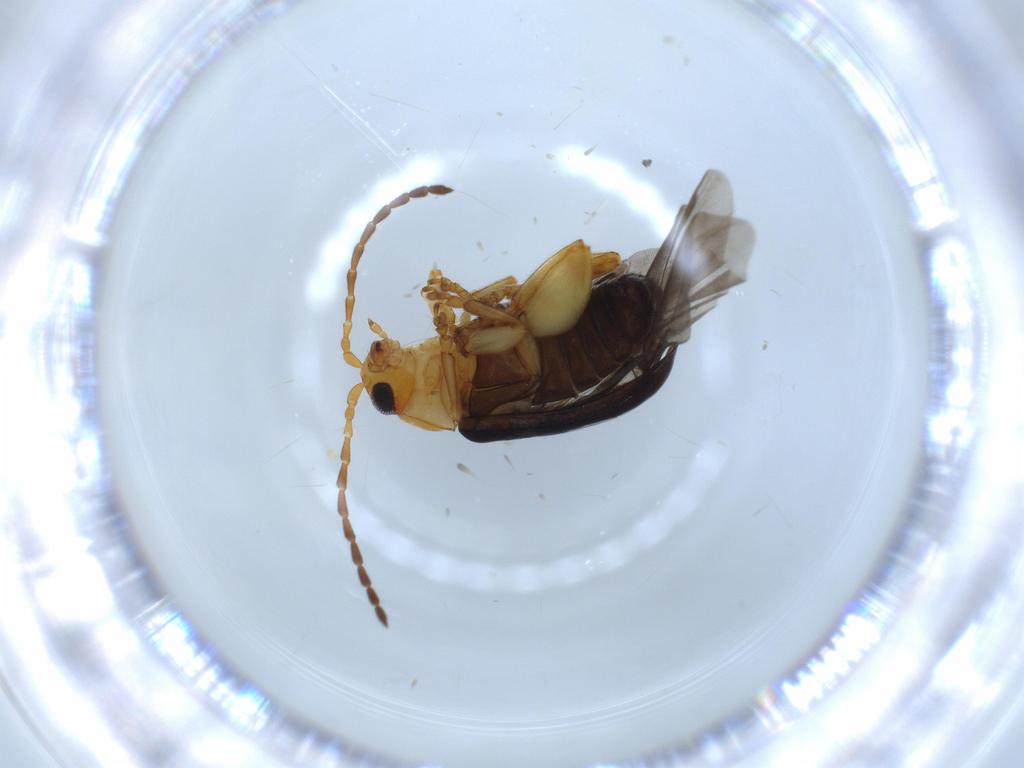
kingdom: Animalia
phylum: Arthropoda
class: Insecta
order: Coleoptera
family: Chrysomelidae
